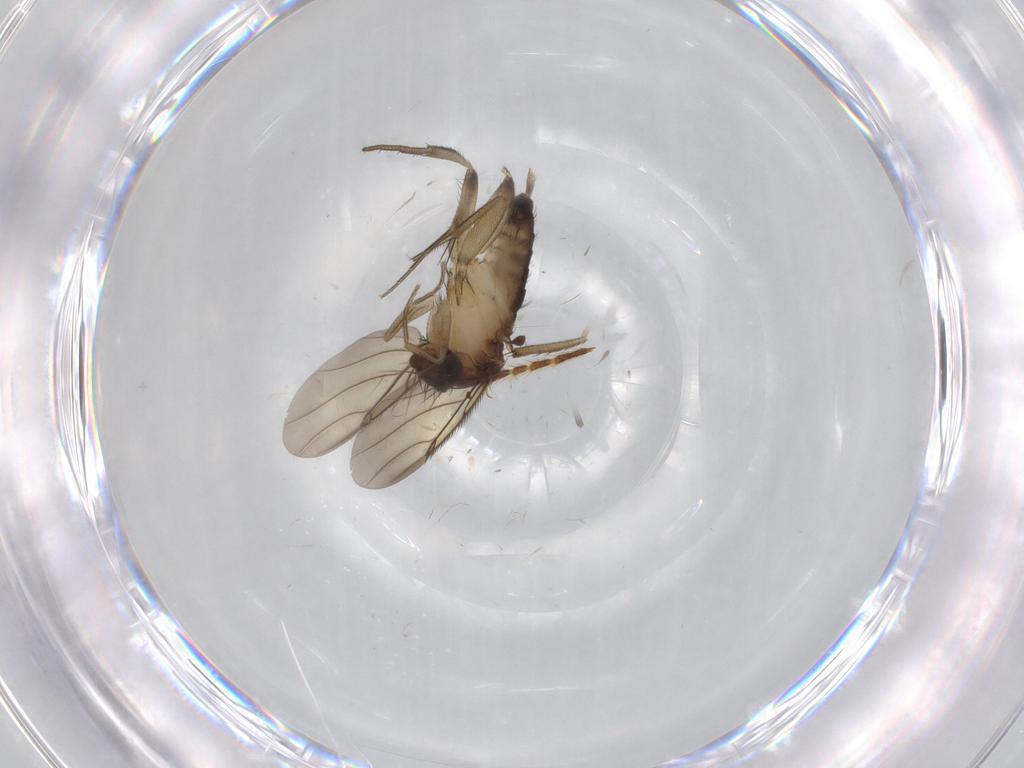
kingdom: Animalia
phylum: Arthropoda
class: Insecta
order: Diptera
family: Ceratopogonidae
